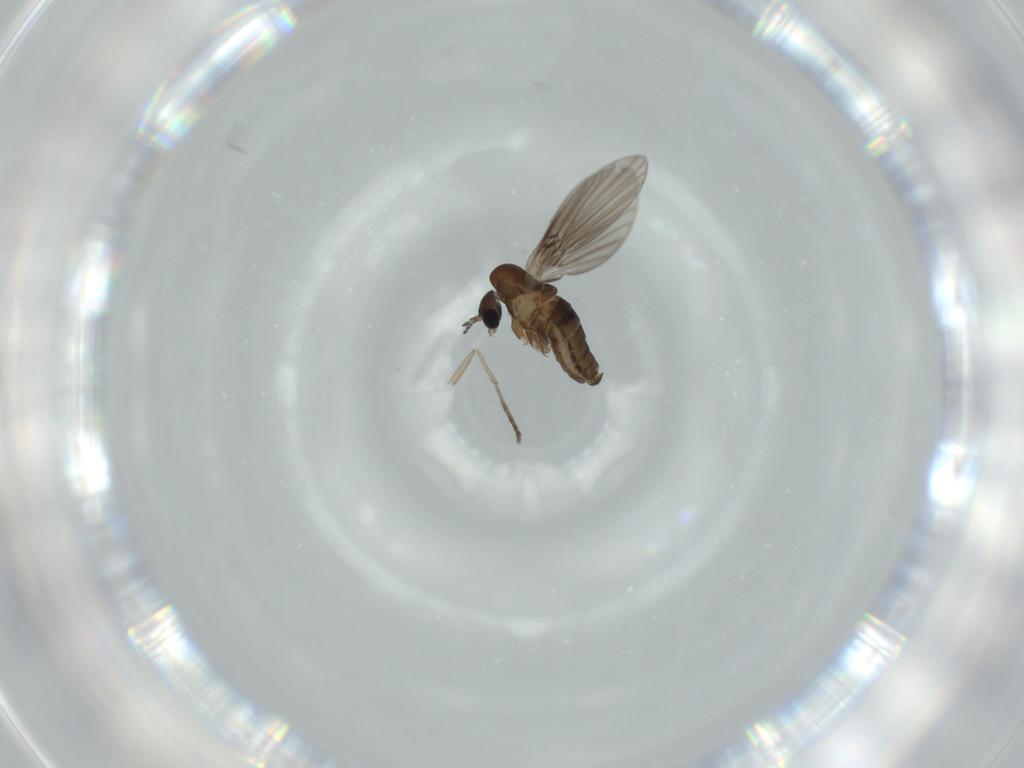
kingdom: Animalia
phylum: Arthropoda
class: Insecta
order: Diptera
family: Psychodidae
